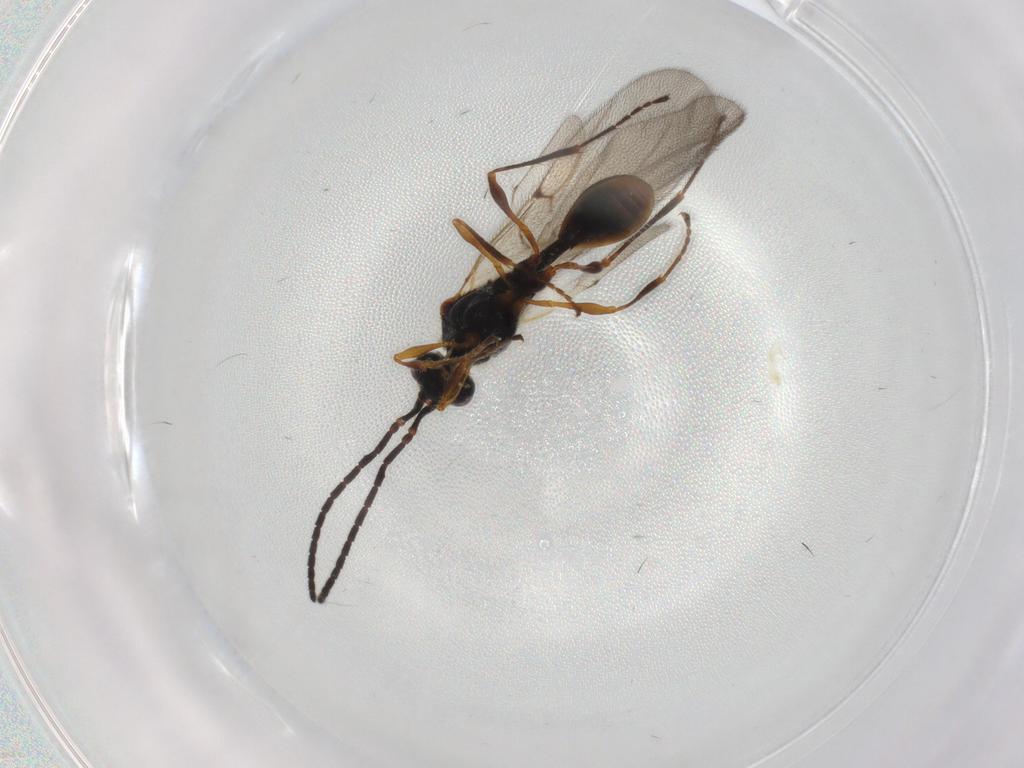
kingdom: Animalia
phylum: Arthropoda
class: Insecta
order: Hymenoptera
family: Diapriidae
